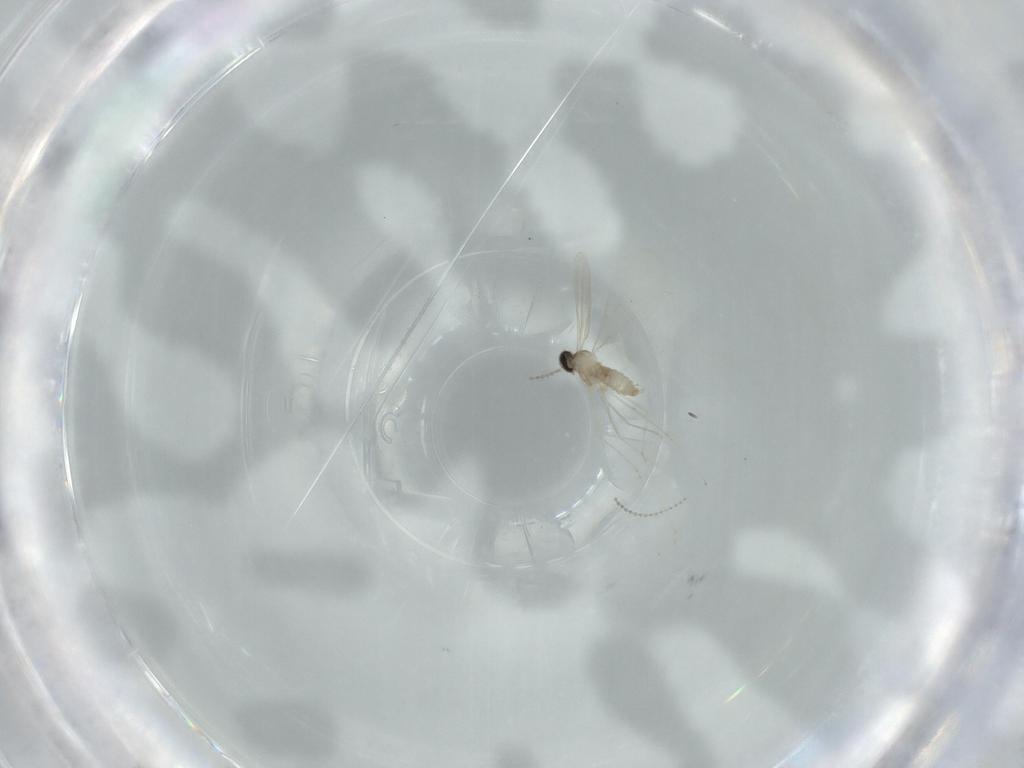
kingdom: Animalia
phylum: Arthropoda
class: Insecta
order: Diptera
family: Cecidomyiidae
